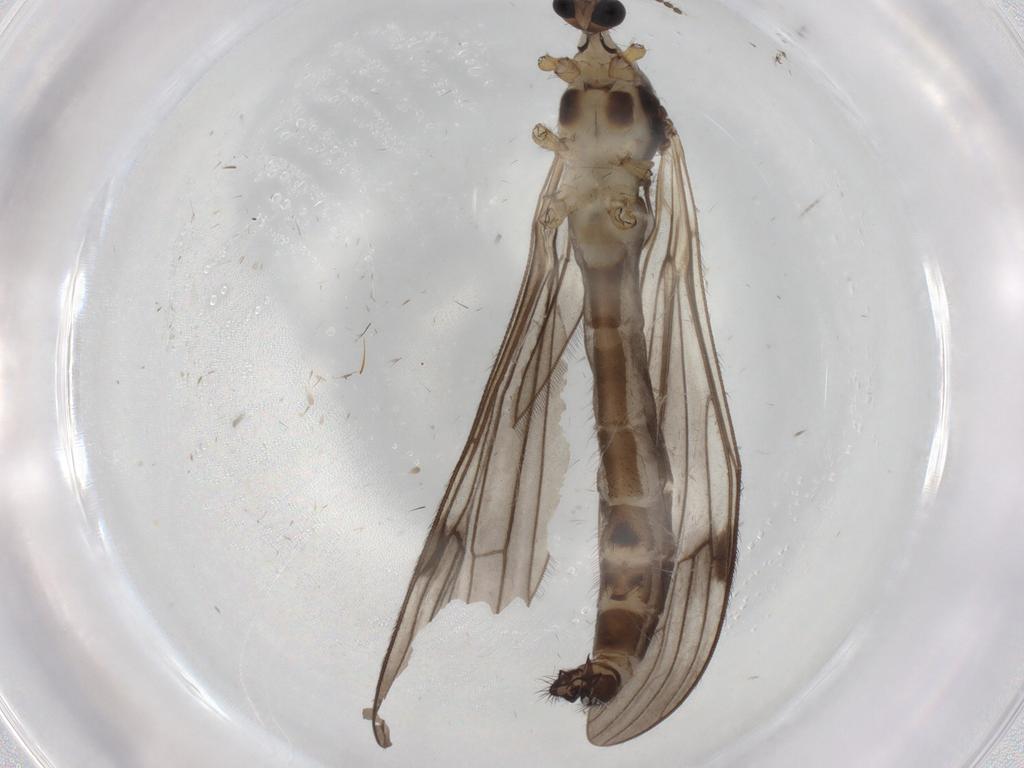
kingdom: Animalia
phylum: Arthropoda
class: Insecta
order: Diptera
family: Limoniidae
